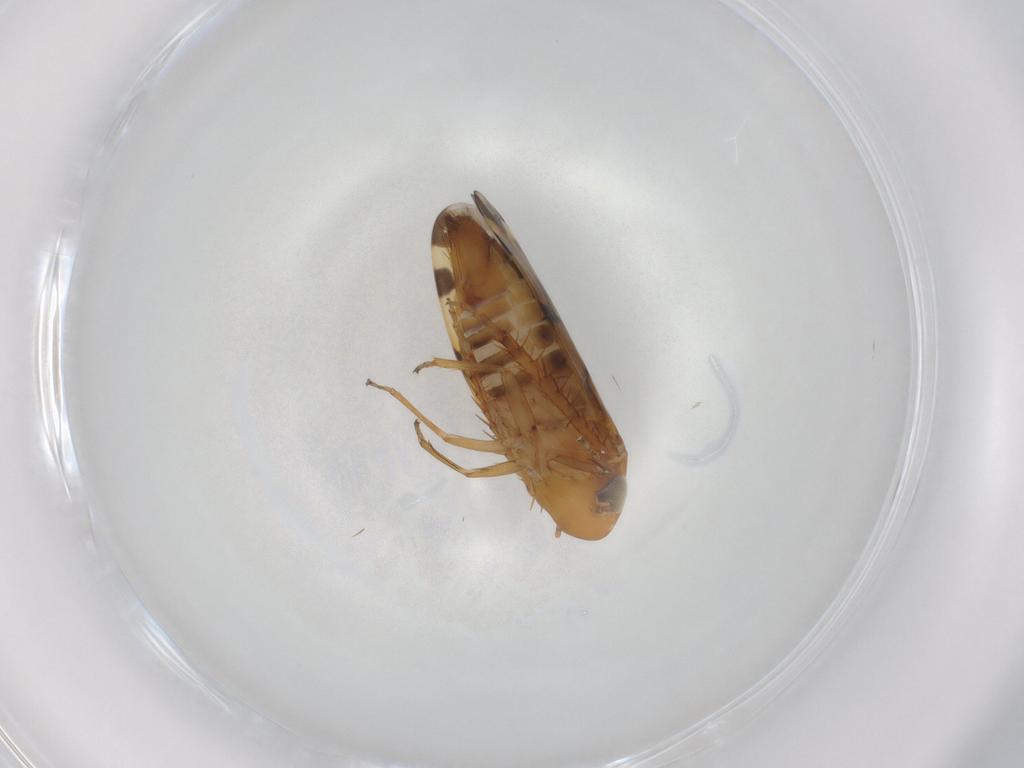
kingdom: Animalia
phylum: Arthropoda
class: Insecta
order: Hemiptera
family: Cicadellidae
